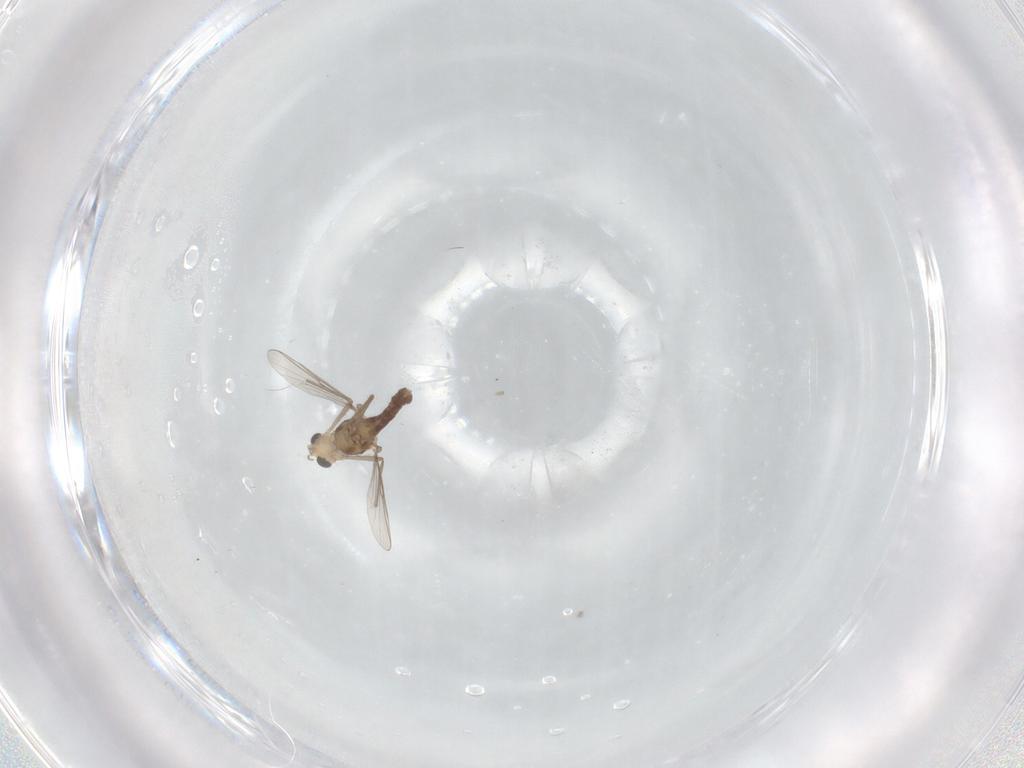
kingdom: Animalia
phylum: Arthropoda
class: Insecta
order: Diptera
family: Chironomidae
